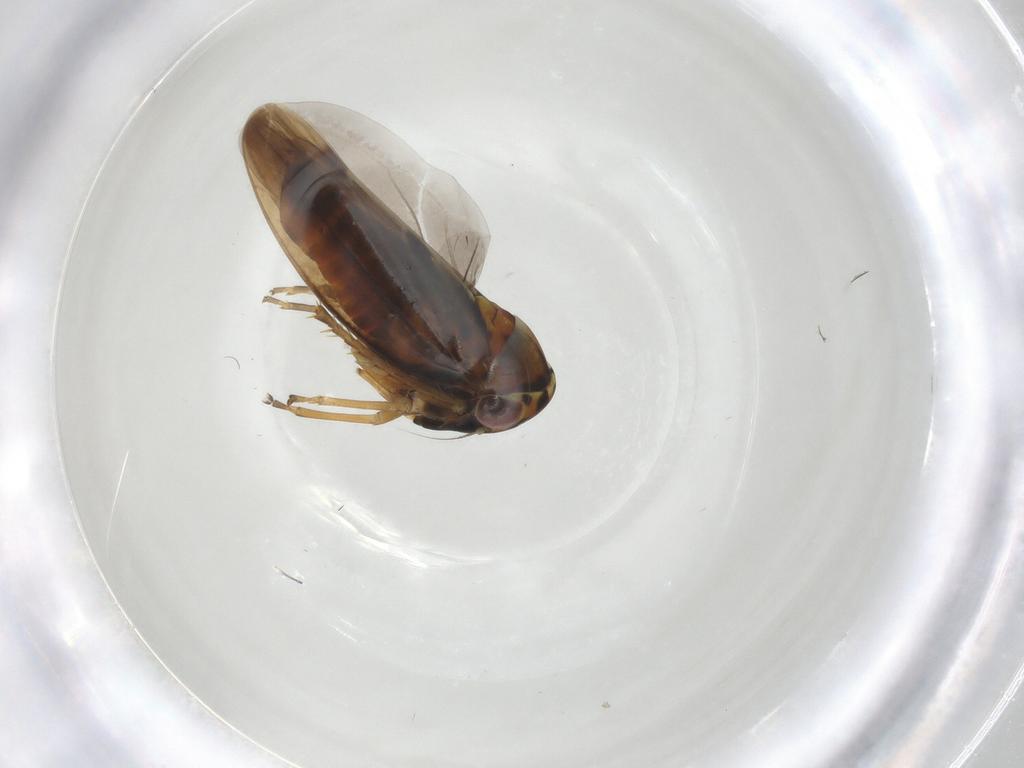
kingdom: Animalia
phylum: Arthropoda
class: Insecta
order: Hemiptera
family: Cicadellidae
